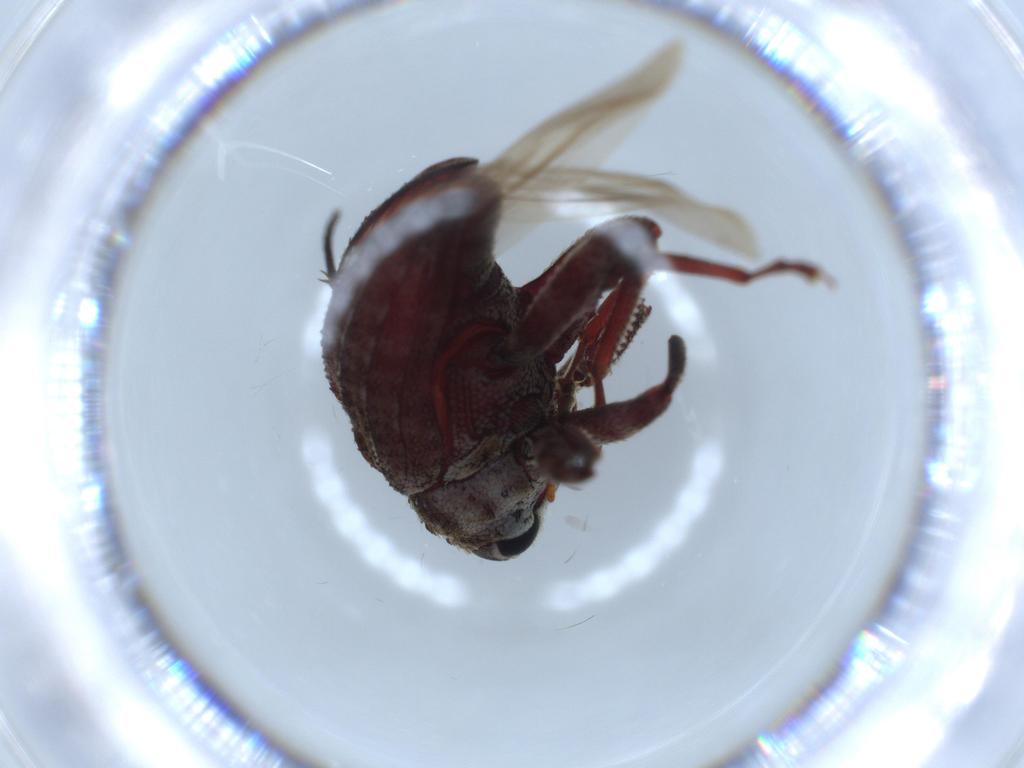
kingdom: Animalia
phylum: Arthropoda
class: Insecta
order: Coleoptera
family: Curculionidae
